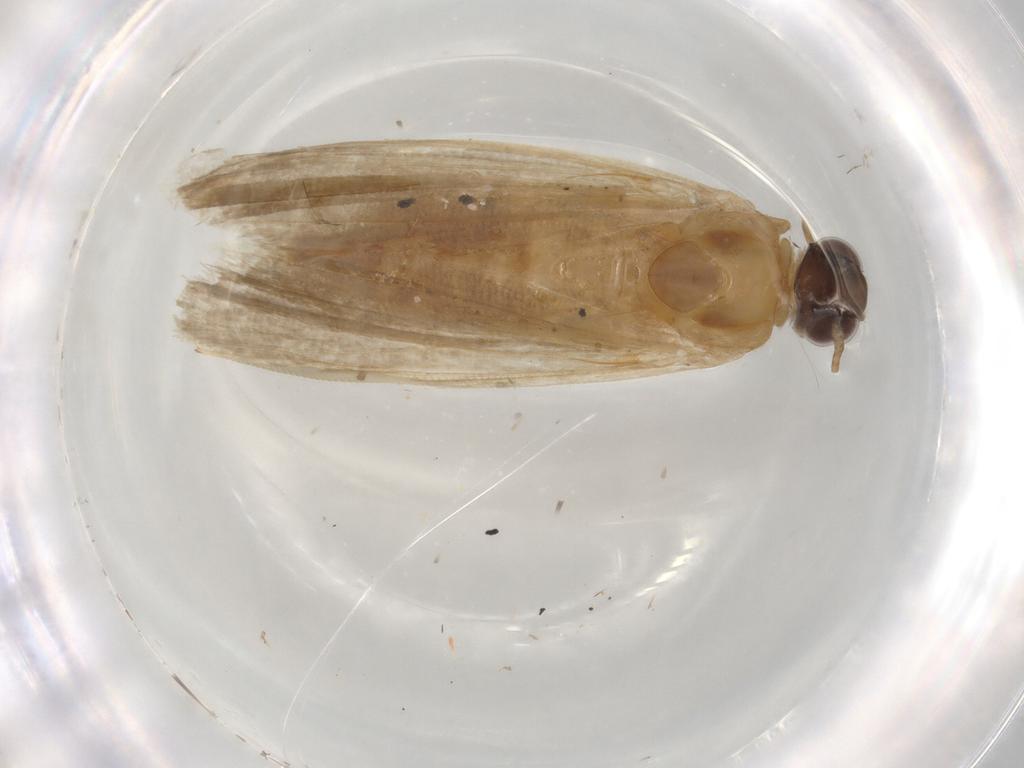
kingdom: Animalia
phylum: Arthropoda
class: Insecta
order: Lepidoptera
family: Noctuidae
